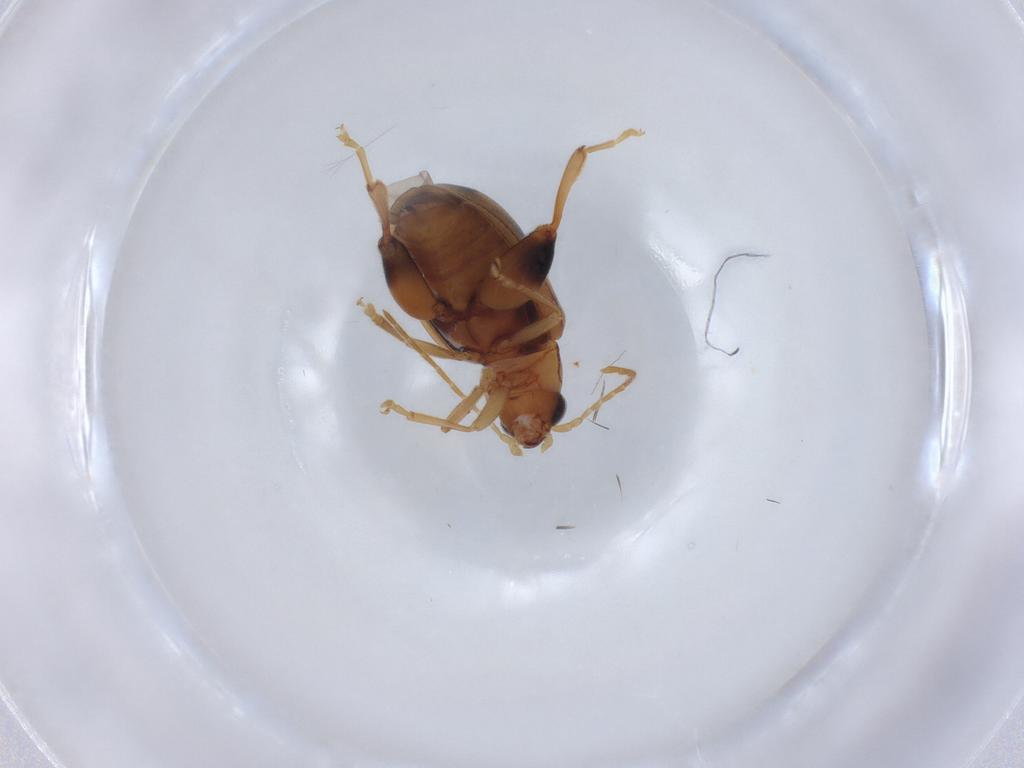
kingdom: Animalia
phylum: Arthropoda
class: Insecta
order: Coleoptera
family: Chrysomelidae
